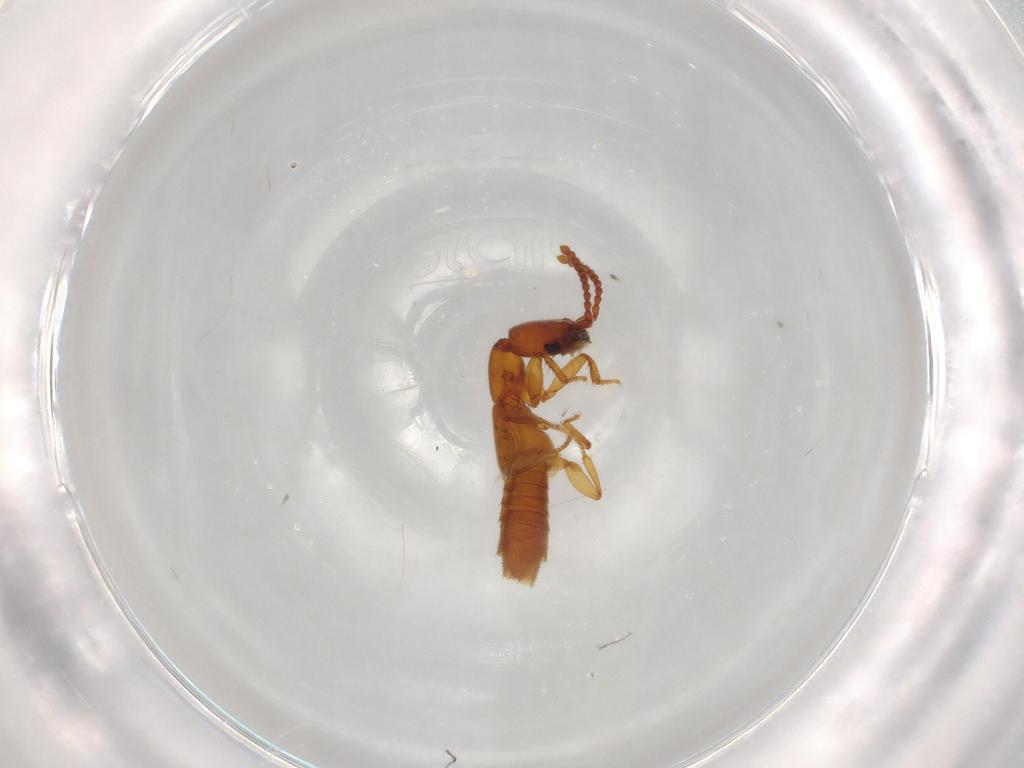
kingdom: Animalia
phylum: Arthropoda
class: Insecta
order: Coleoptera
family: Staphylinidae
